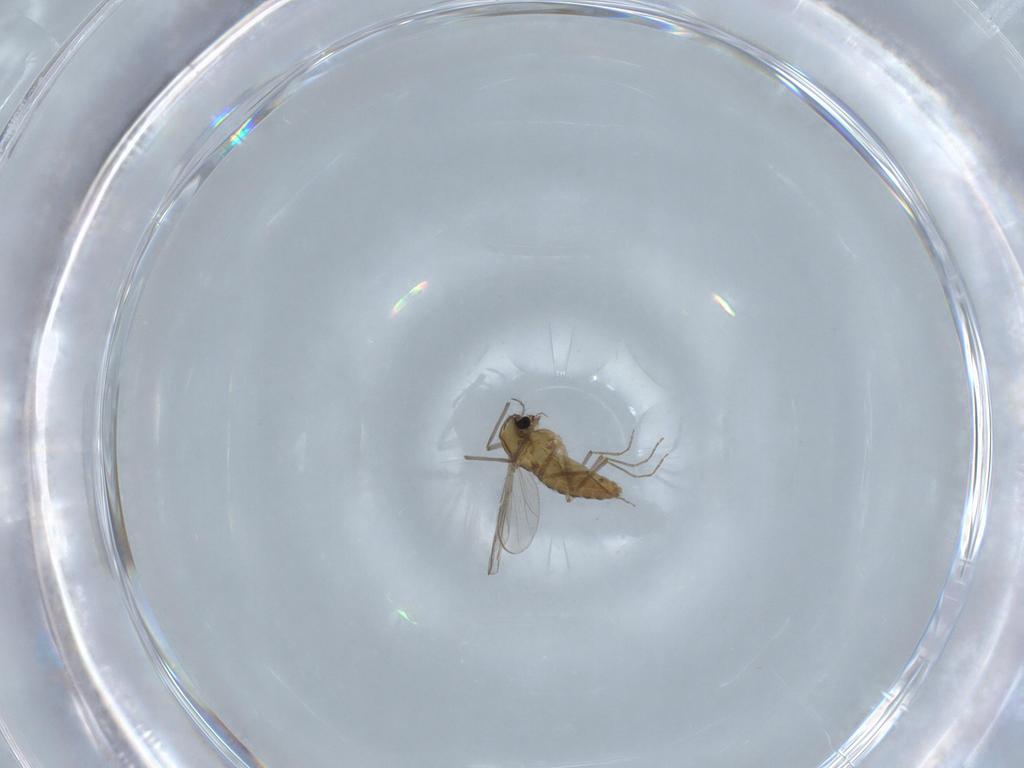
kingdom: Animalia
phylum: Arthropoda
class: Insecta
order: Diptera
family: Chironomidae
